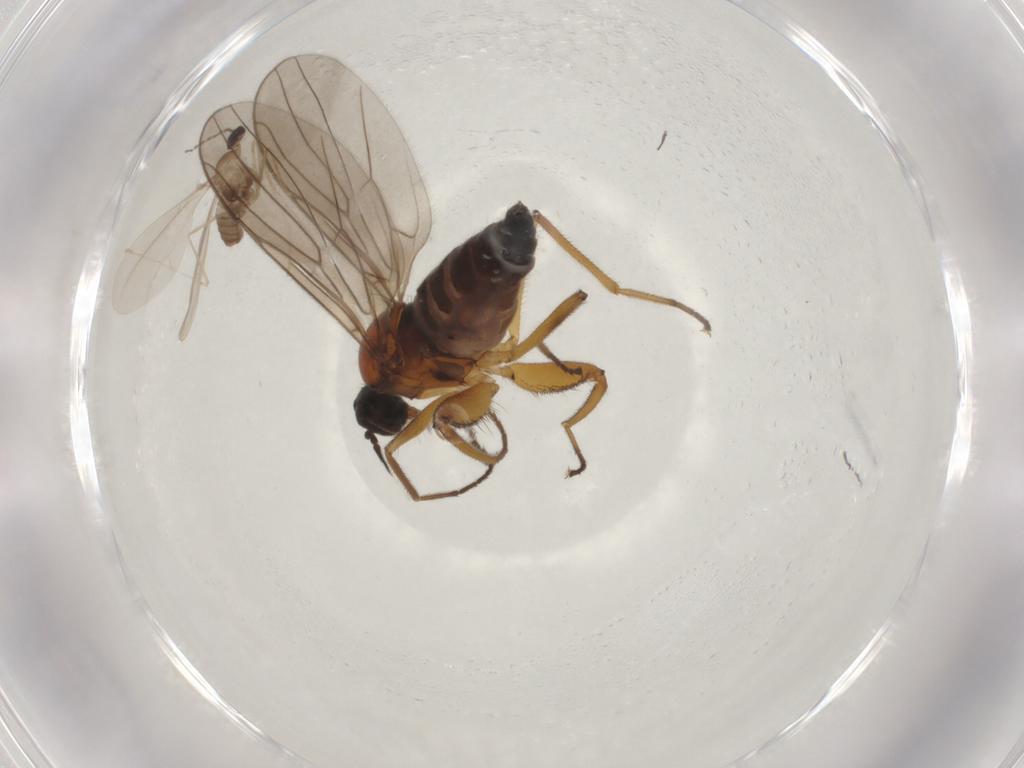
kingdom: Animalia
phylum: Arthropoda
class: Insecta
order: Diptera
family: Hybotidae
